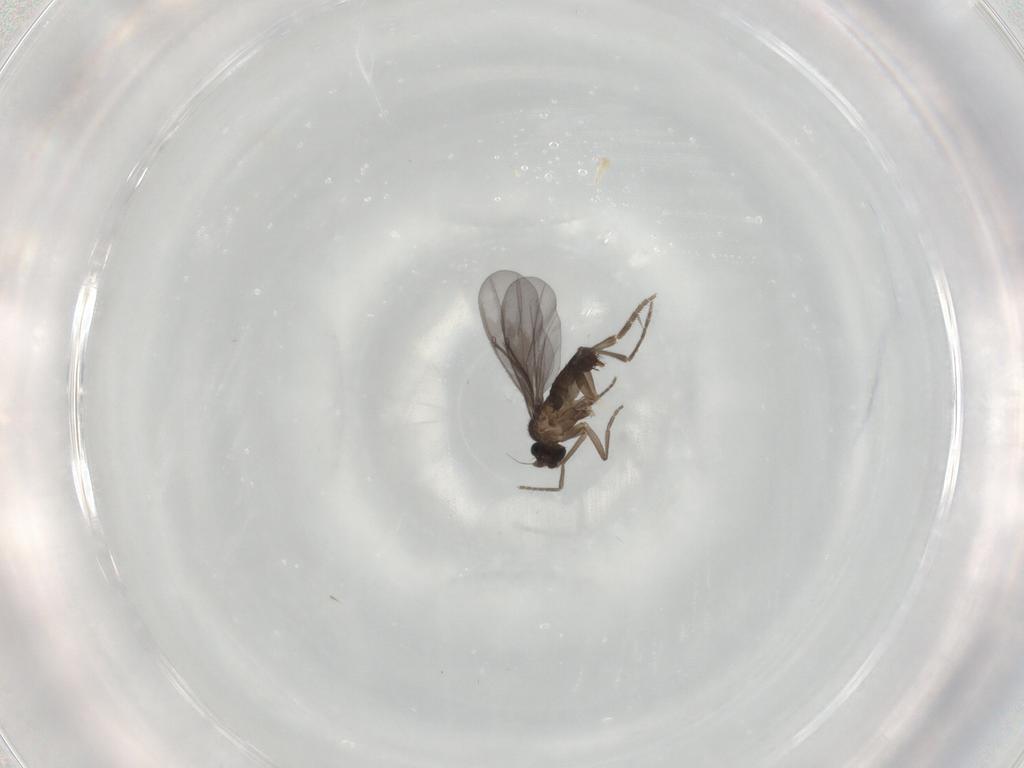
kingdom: Animalia
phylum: Arthropoda
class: Insecta
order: Diptera
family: Phoridae
